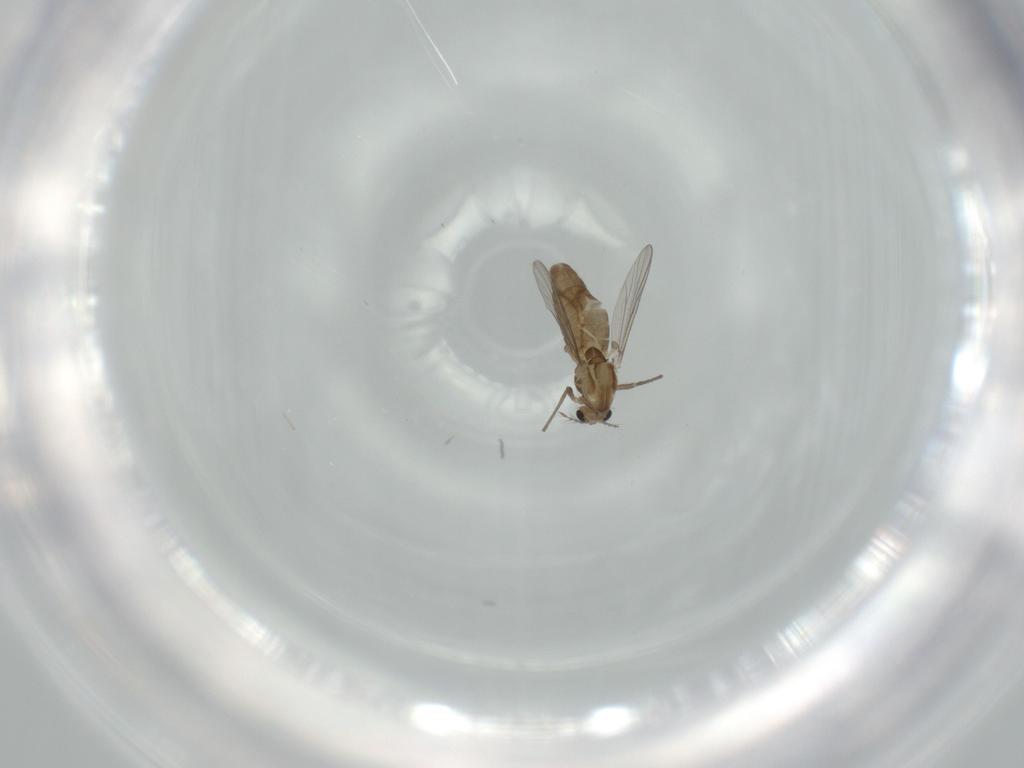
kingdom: Animalia
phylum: Arthropoda
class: Insecta
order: Diptera
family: Chironomidae
